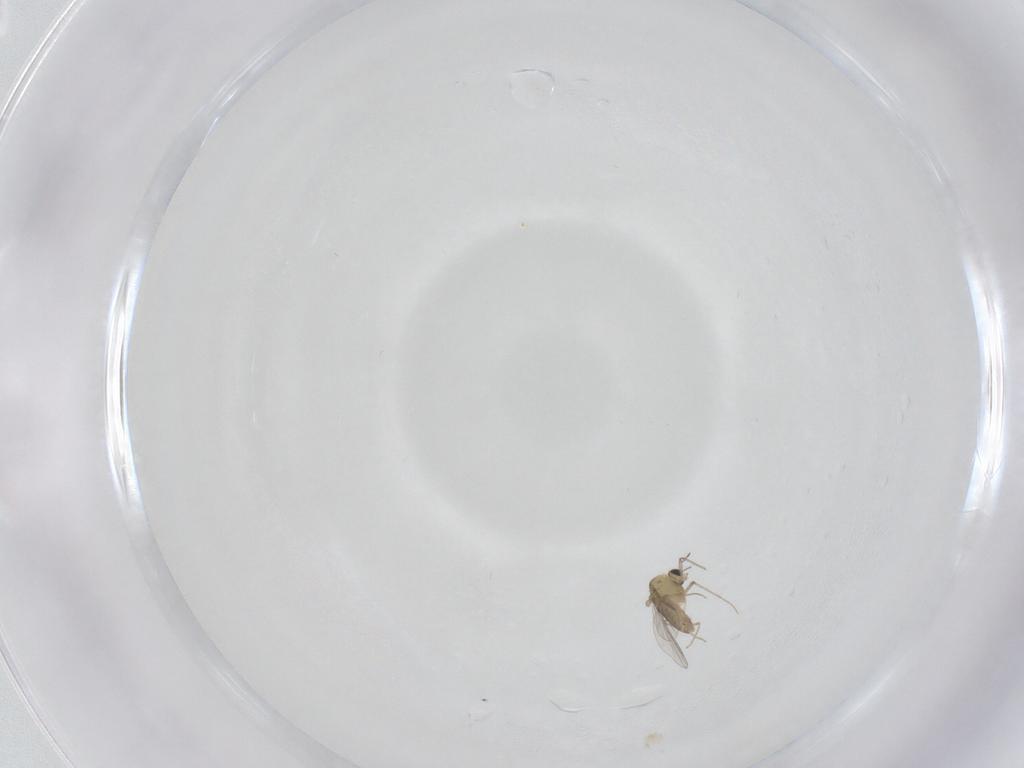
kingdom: Animalia
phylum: Arthropoda
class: Insecta
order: Diptera
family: Chironomidae
